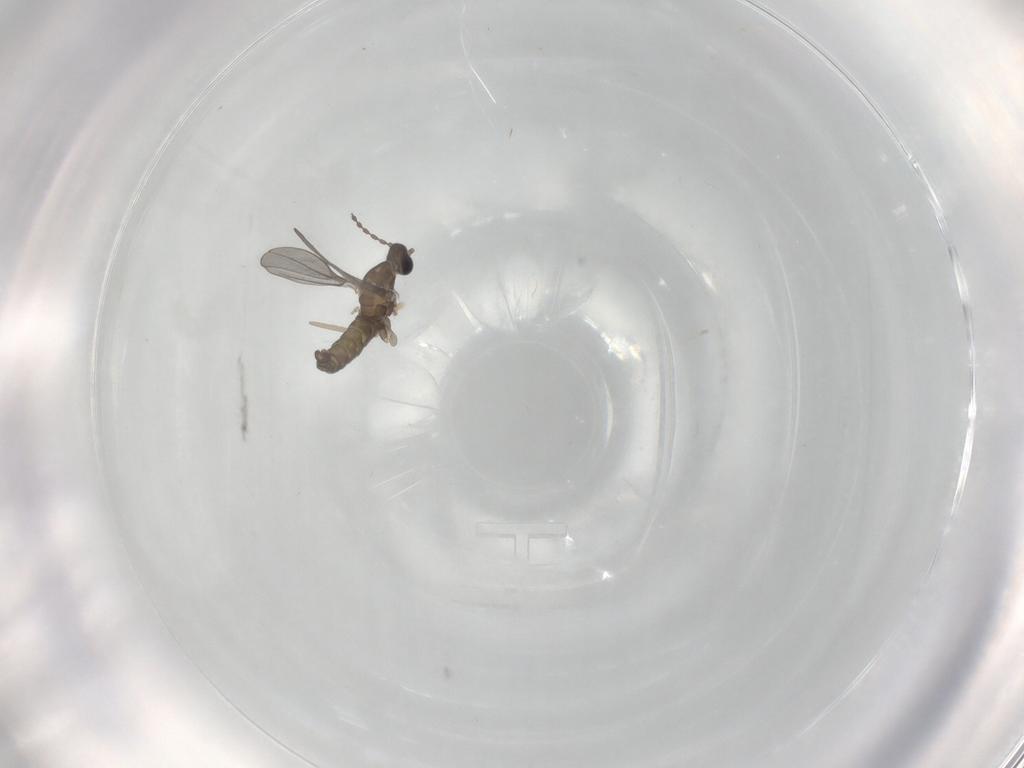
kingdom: Animalia
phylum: Arthropoda
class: Insecta
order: Diptera
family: Cecidomyiidae
